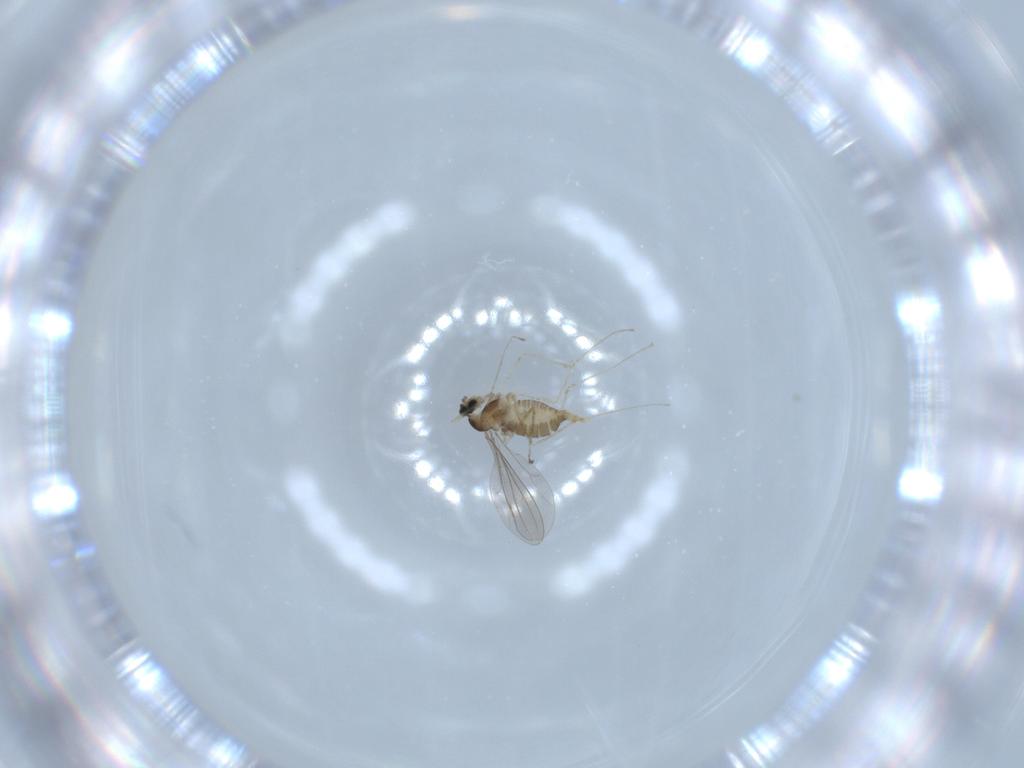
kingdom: Animalia
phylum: Arthropoda
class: Insecta
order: Diptera
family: Cecidomyiidae
